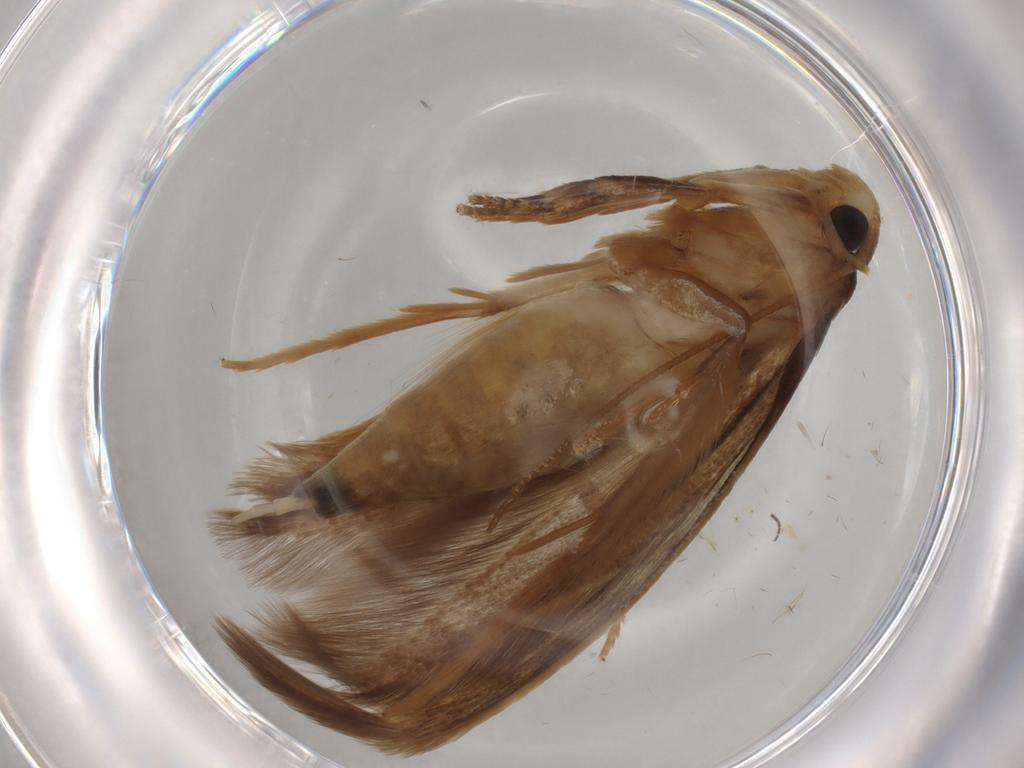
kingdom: Animalia
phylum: Arthropoda
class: Insecta
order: Lepidoptera
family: Tineidae
